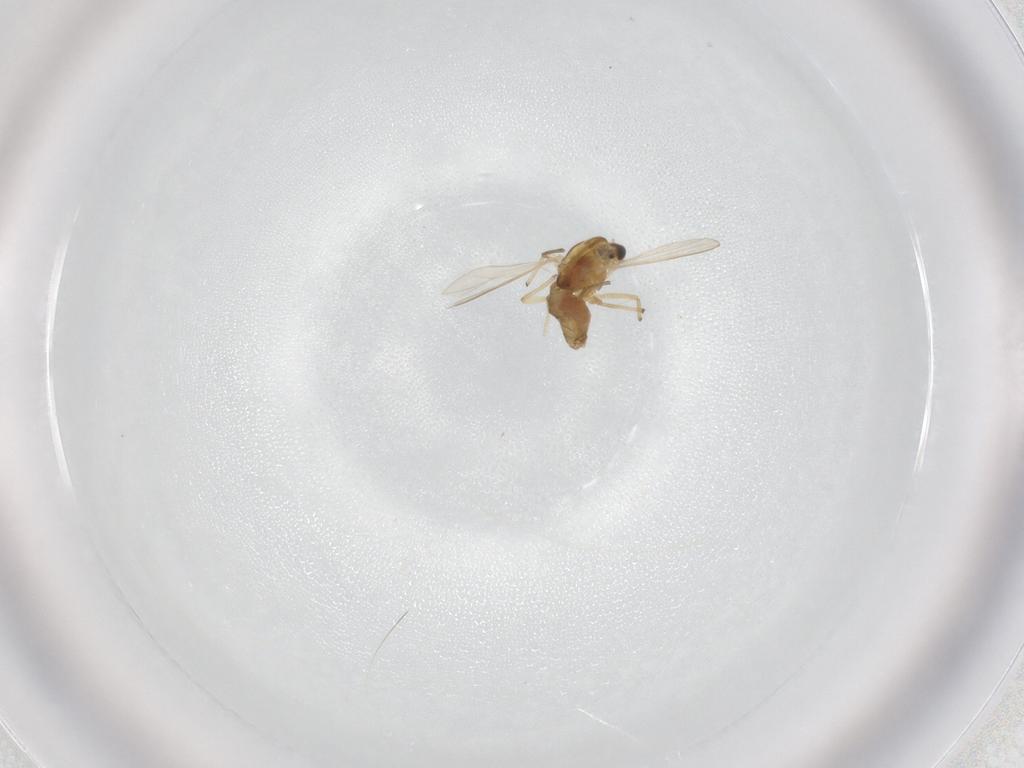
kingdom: Animalia
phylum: Arthropoda
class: Insecta
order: Diptera
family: Chironomidae
